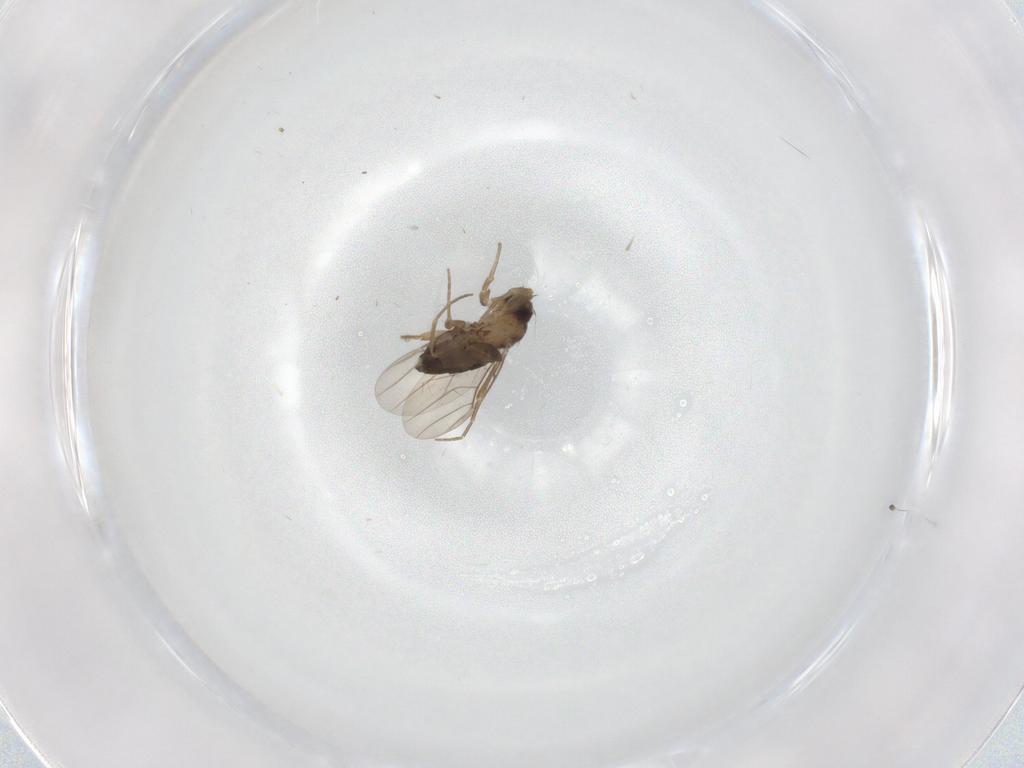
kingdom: Animalia
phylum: Arthropoda
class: Insecta
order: Diptera
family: Phoridae
